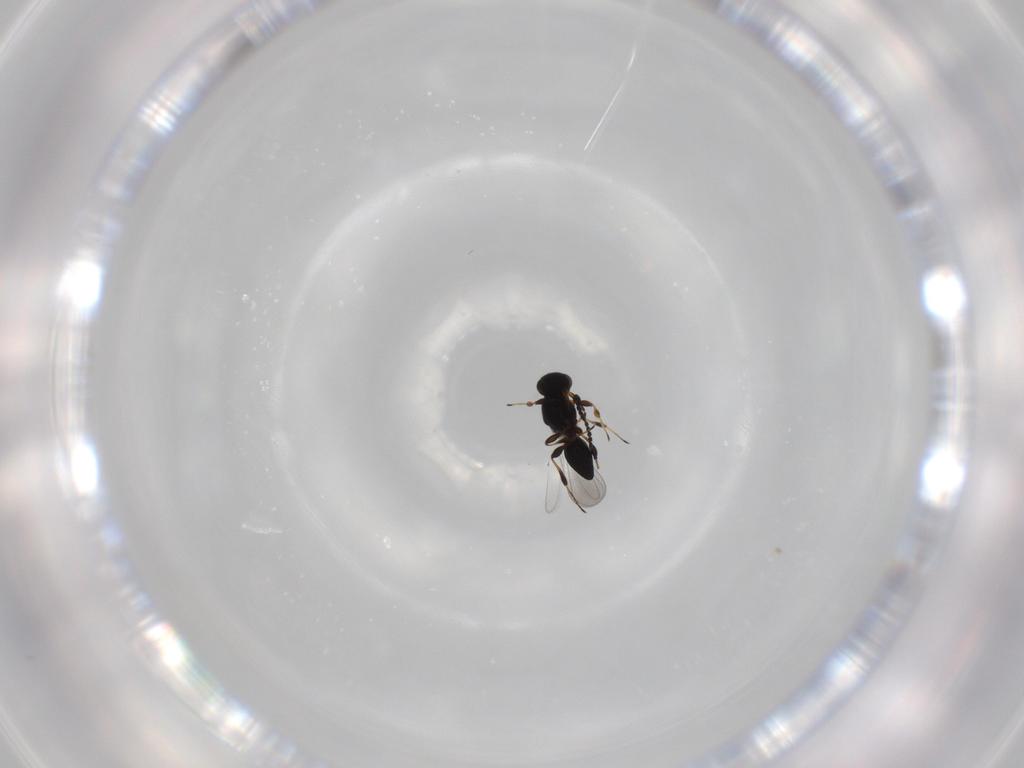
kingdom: Animalia
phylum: Arthropoda
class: Insecta
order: Hymenoptera
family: Platygastridae
